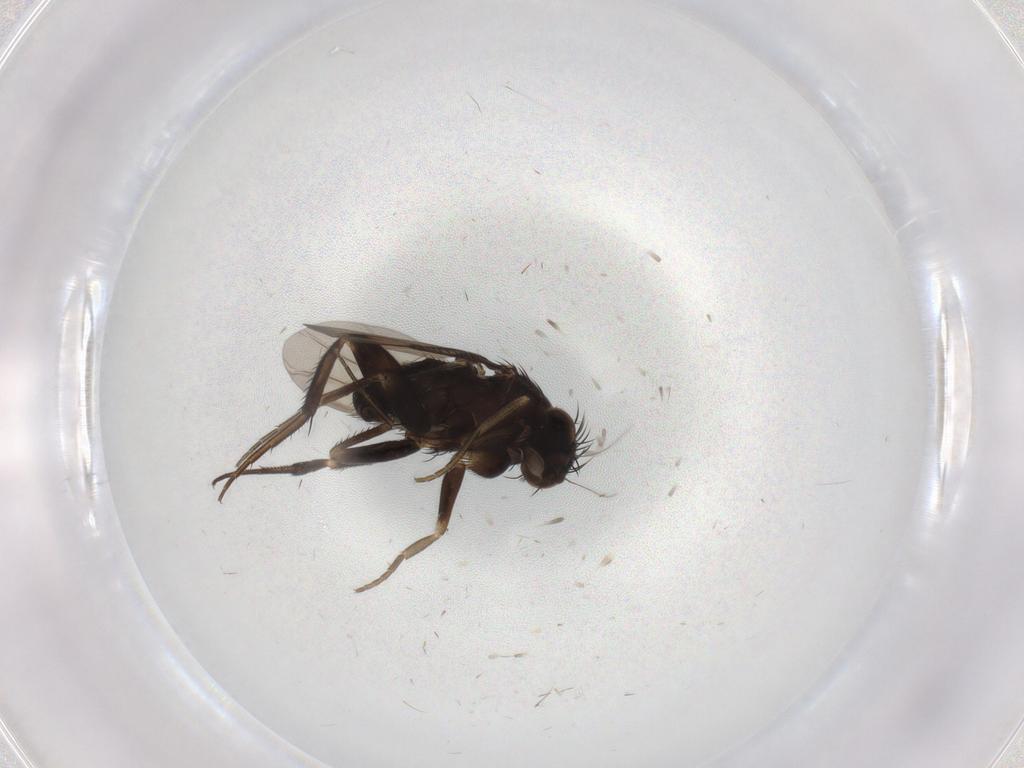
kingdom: Animalia
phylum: Arthropoda
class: Insecta
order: Diptera
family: Phoridae
